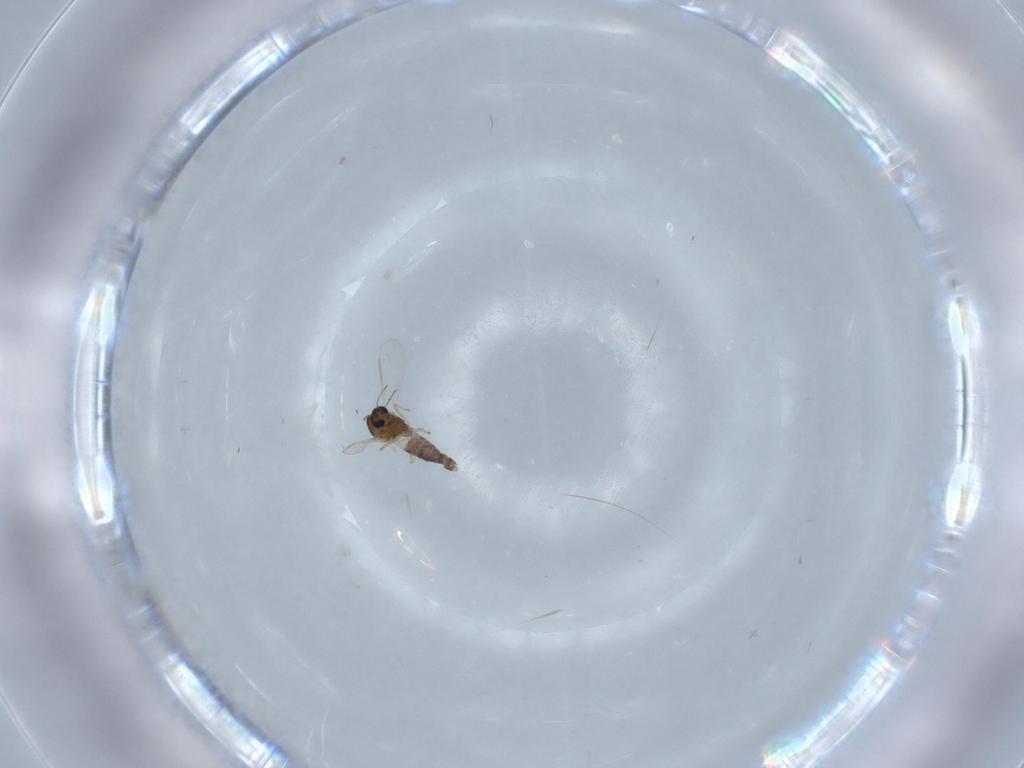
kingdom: Animalia
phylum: Arthropoda
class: Insecta
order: Diptera
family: Chironomidae
